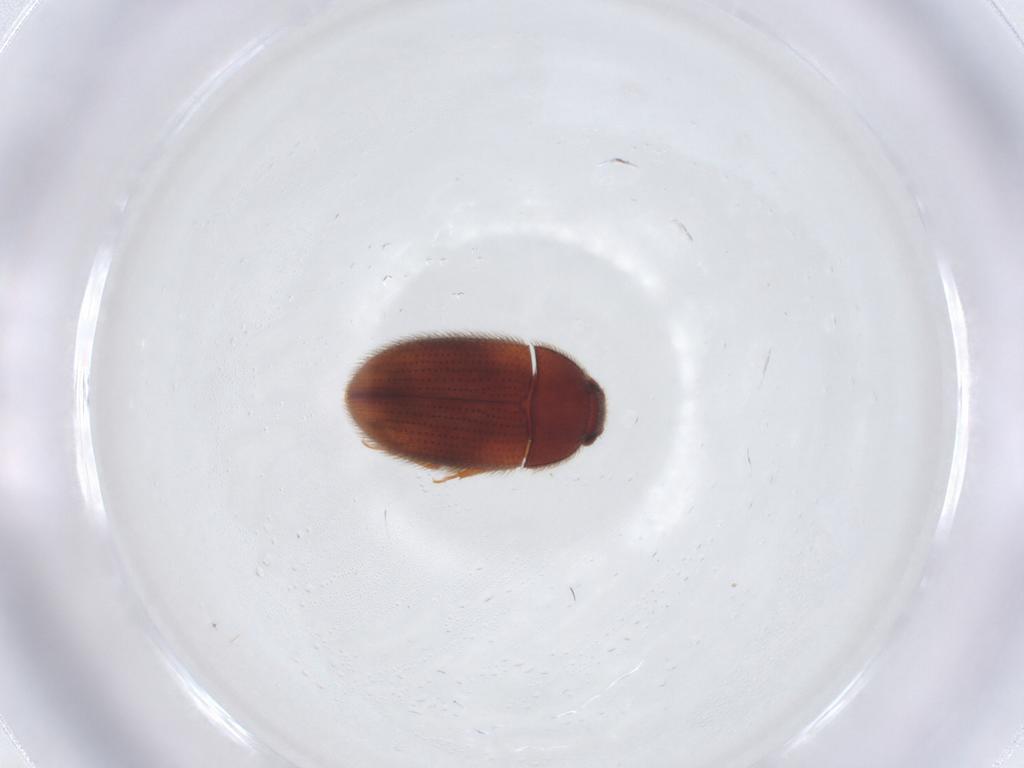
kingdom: Animalia
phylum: Arthropoda
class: Insecta
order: Coleoptera
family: Biphyllidae
